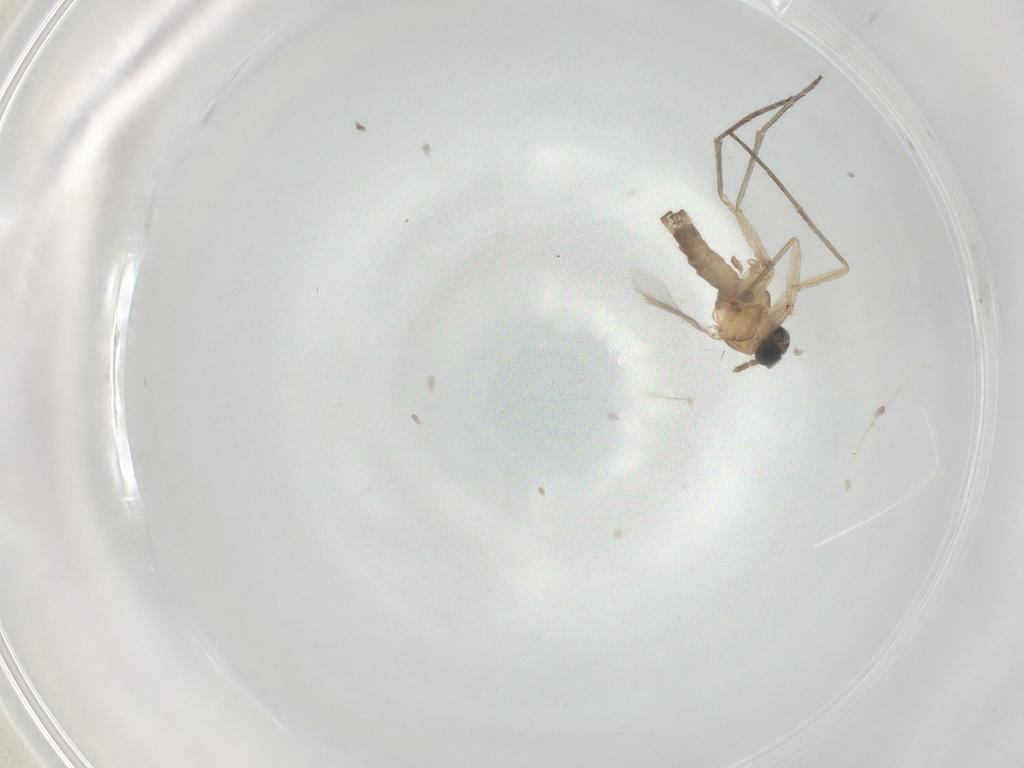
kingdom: Animalia
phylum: Arthropoda
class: Insecta
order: Diptera
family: Sciaridae
